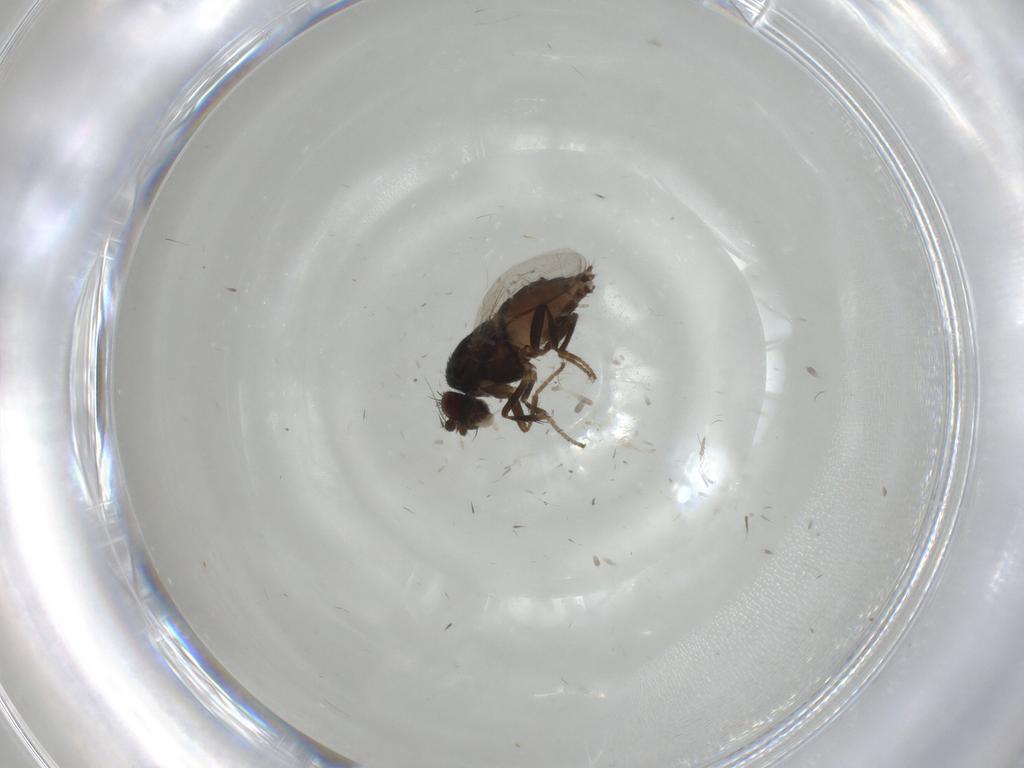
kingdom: Animalia
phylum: Arthropoda
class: Insecta
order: Diptera
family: Sphaeroceridae
